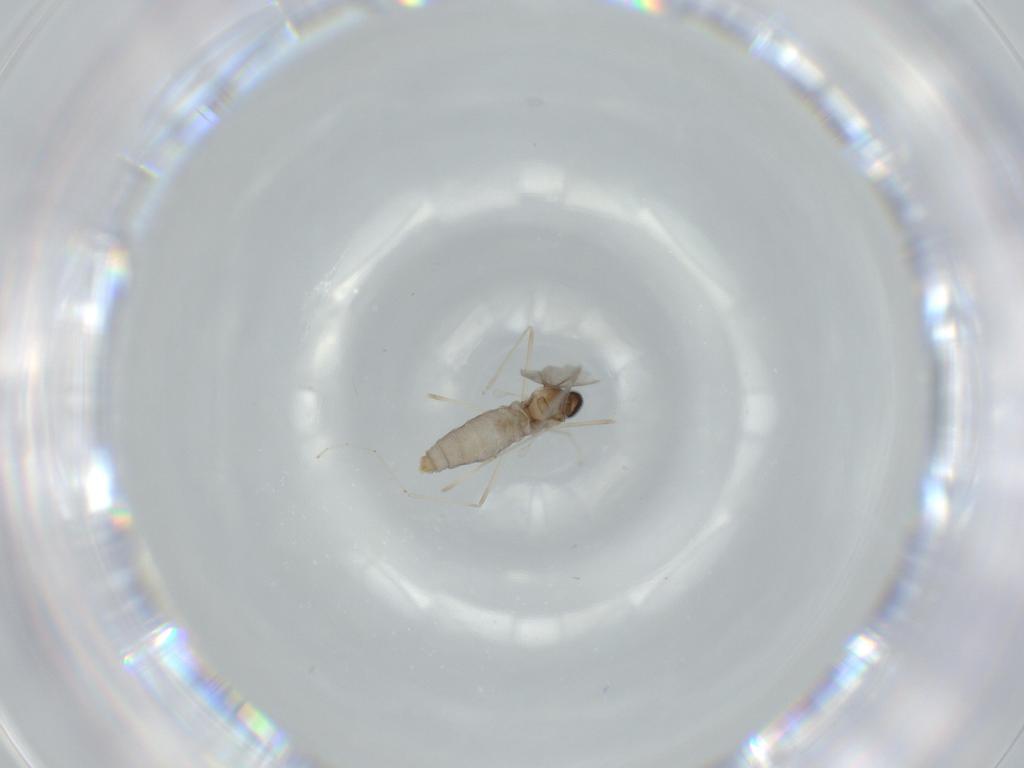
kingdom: Animalia
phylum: Arthropoda
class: Insecta
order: Diptera
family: Cecidomyiidae
